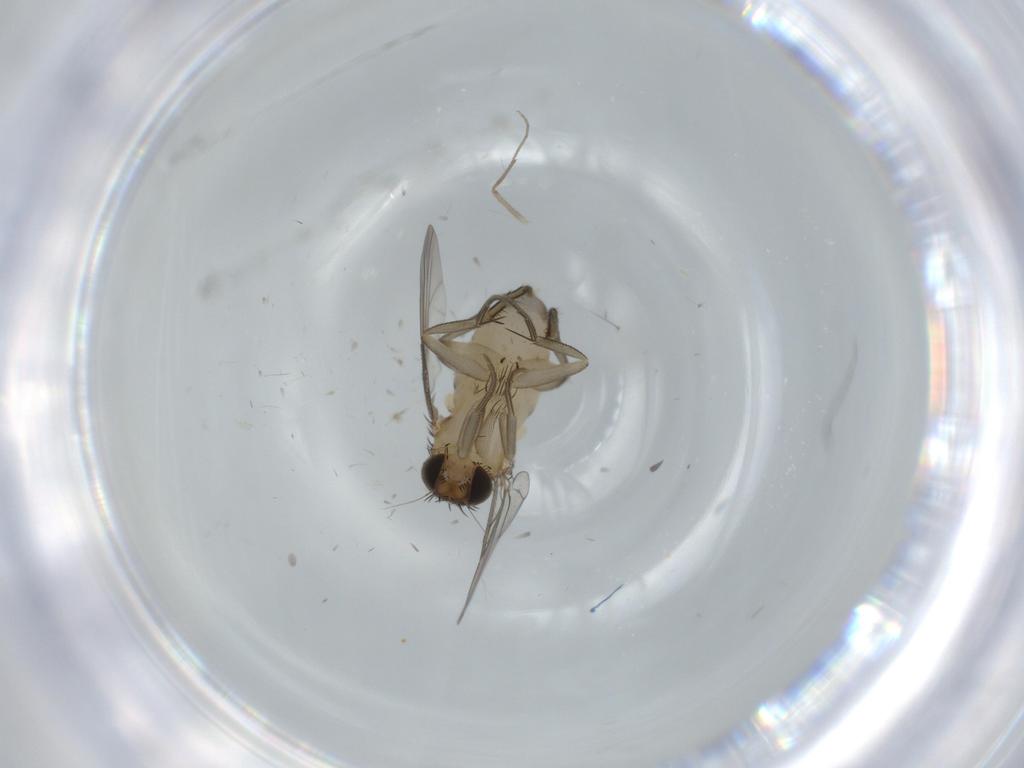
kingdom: Animalia
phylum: Arthropoda
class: Insecta
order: Diptera
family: Phoridae
